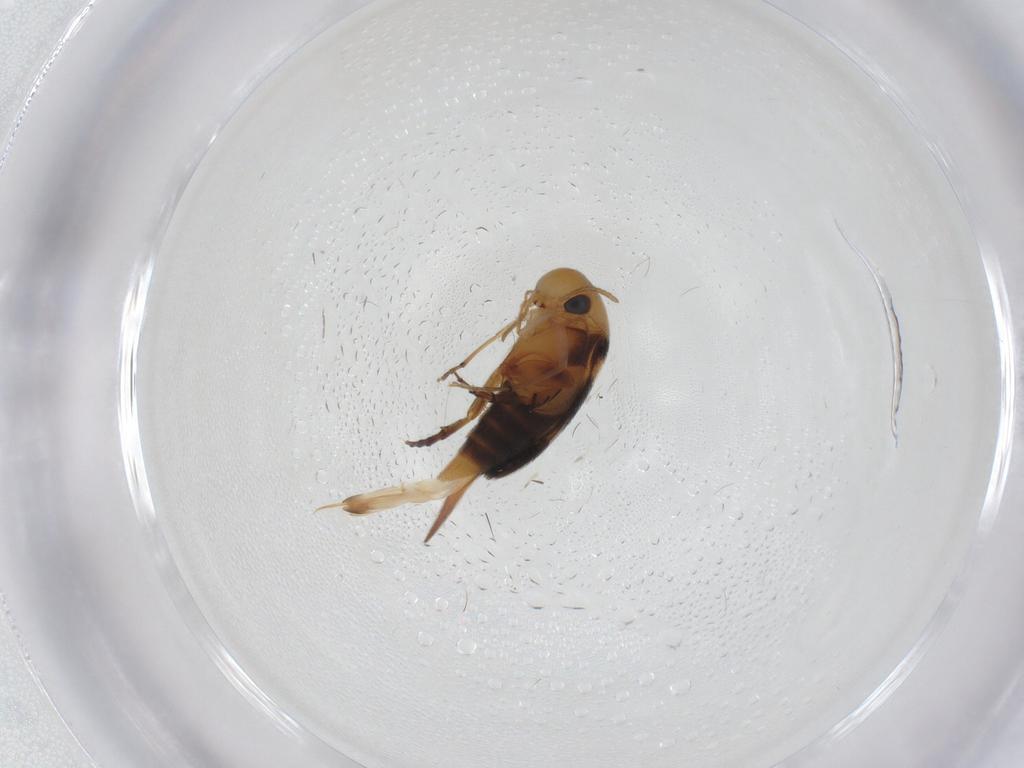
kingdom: Animalia
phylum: Arthropoda
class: Insecta
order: Coleoptera
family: Mordellidae
